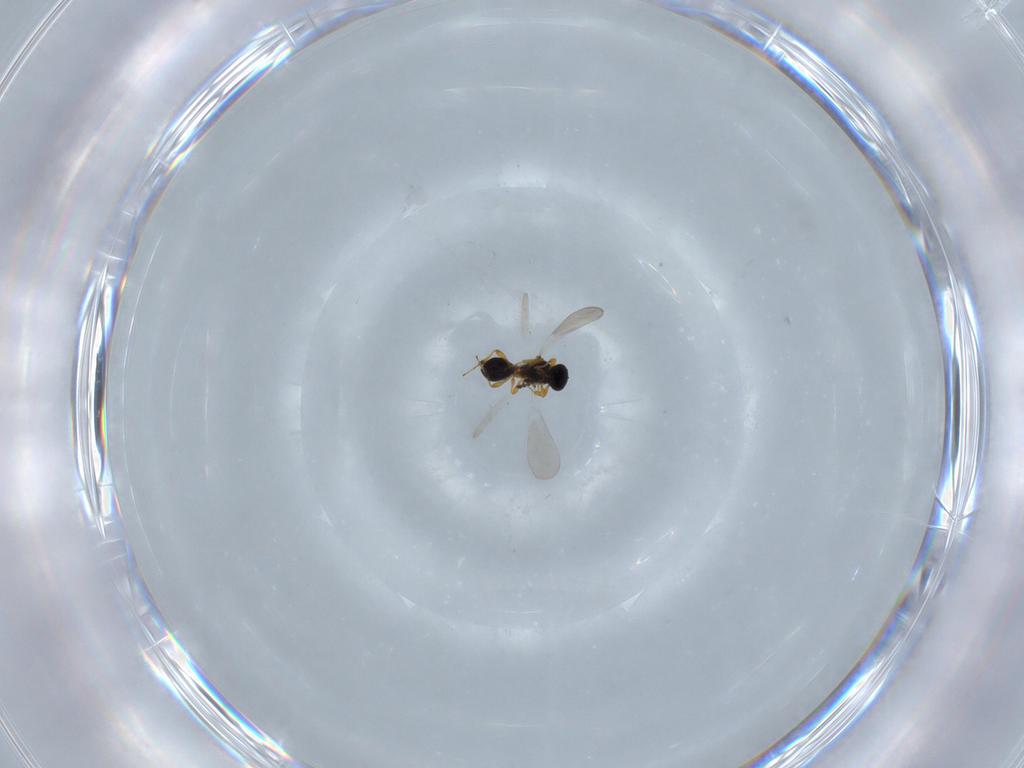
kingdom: Animalia
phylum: Arthropoda
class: Insecta
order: Hymenoptera
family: Platygastridae
